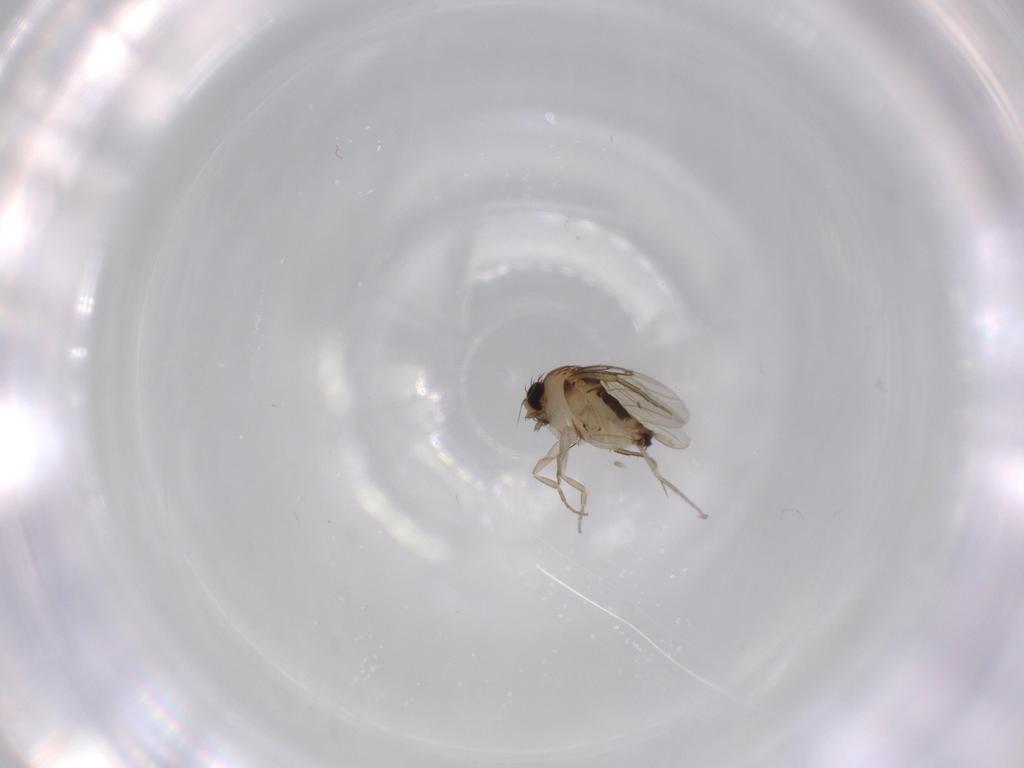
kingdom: Animalia
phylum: Arthropoda
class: Insecta
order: Diptera
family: Phoridae
